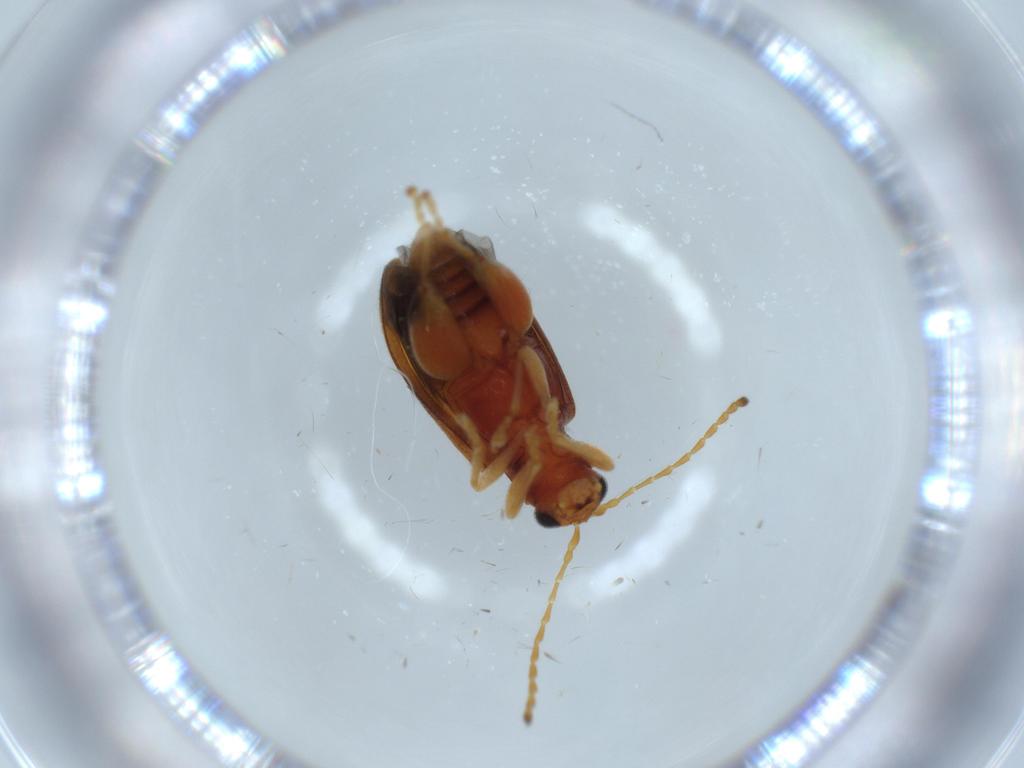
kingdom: Animalia
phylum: Arthropoda
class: Insecta
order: Coleoptera
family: Chrysomelidae
